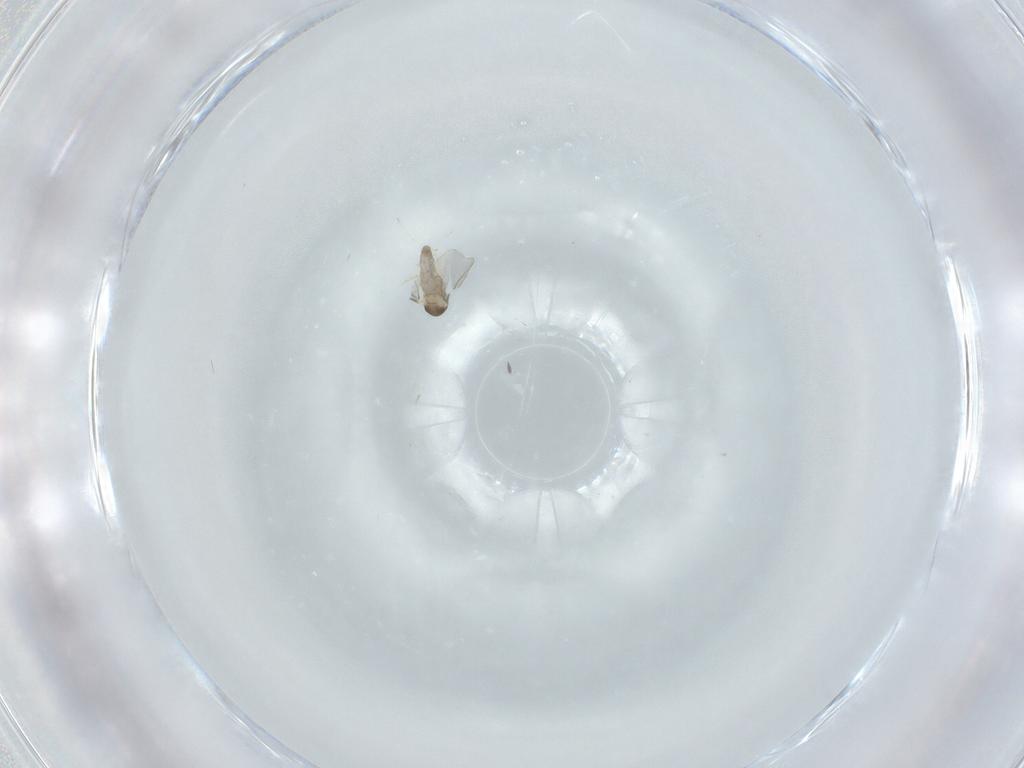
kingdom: Animalia
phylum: Arthropoda
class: Insecta
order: Diptera
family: Cecidomyiidae
